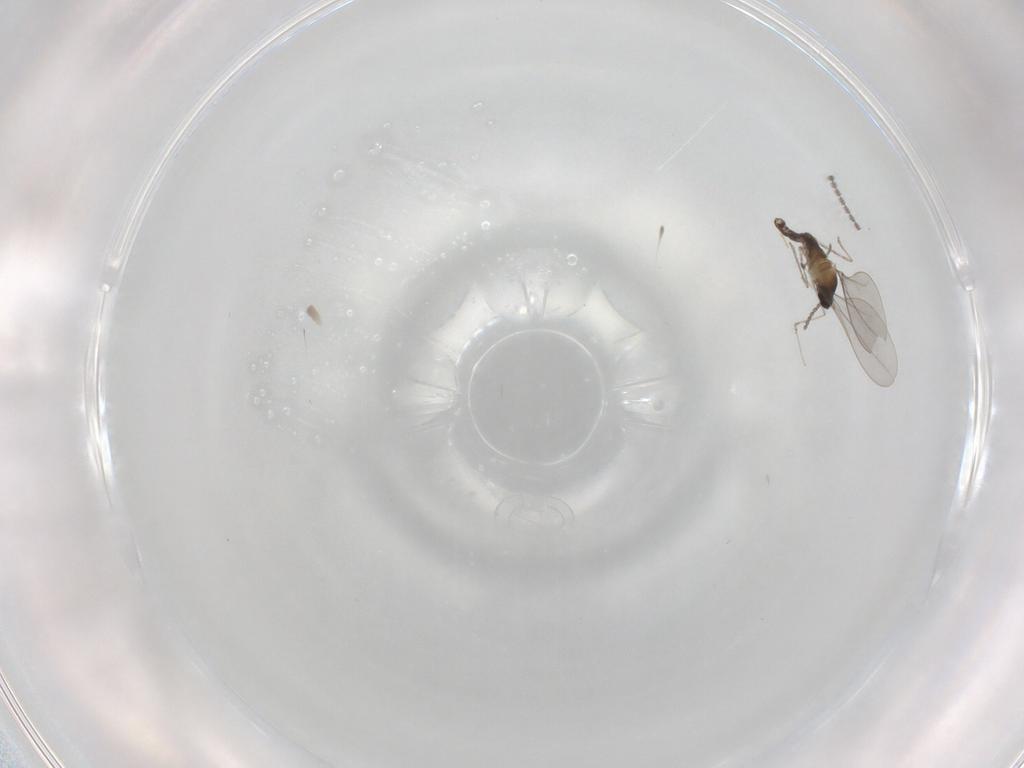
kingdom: Animalia
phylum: Arthropoda
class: Insecta
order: Diptera
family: Cecidomyiidae
